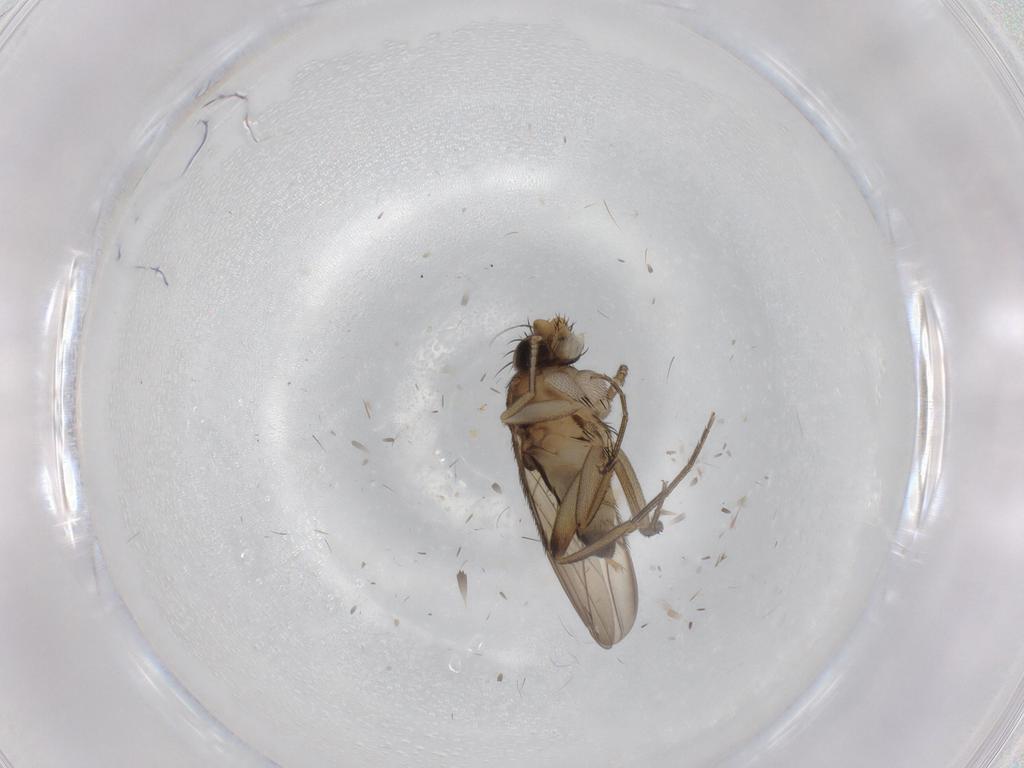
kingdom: Animalia
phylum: Arthropoda
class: Insecta
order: Diptera
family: Phoridae
